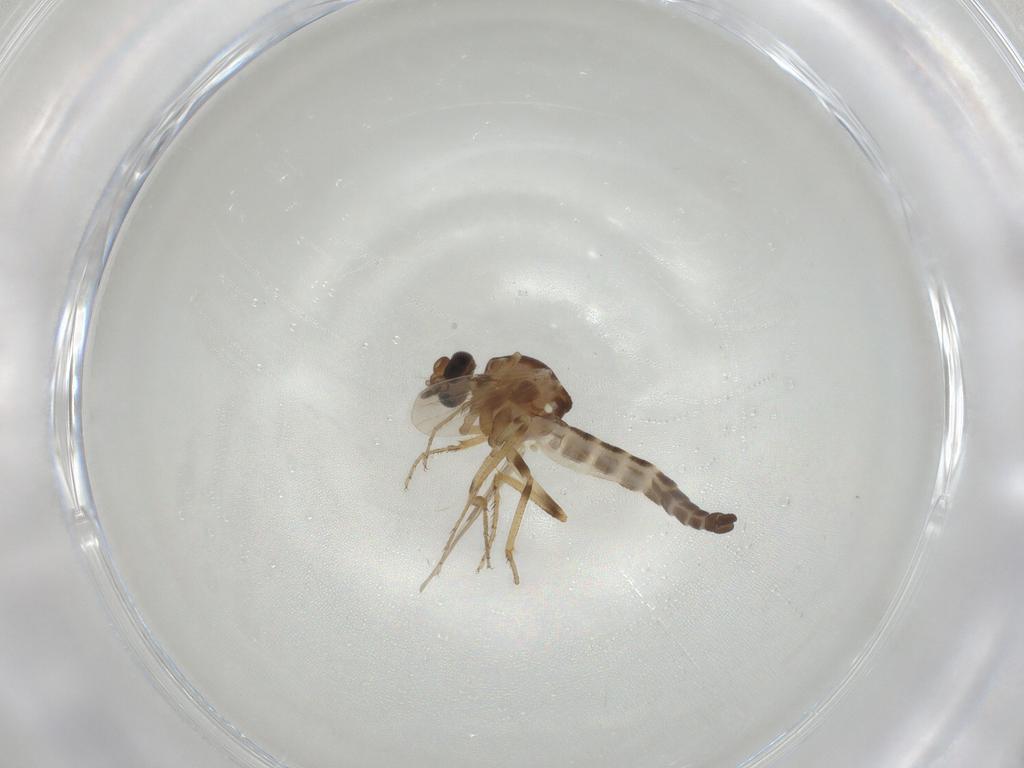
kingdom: Animalia
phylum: Arthropoda
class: Insecta
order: Diptera
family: Ceratopogonidae
